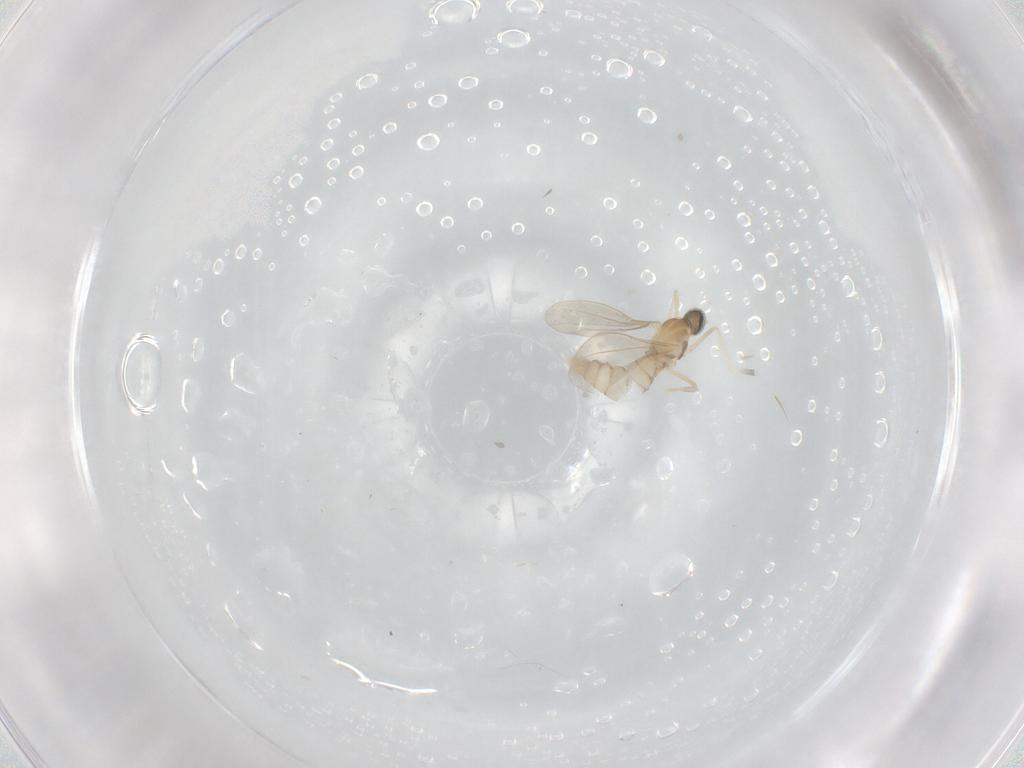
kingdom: Animalia
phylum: Arthropoda
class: Insecta
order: Diptera
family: Cecidomyiidae
